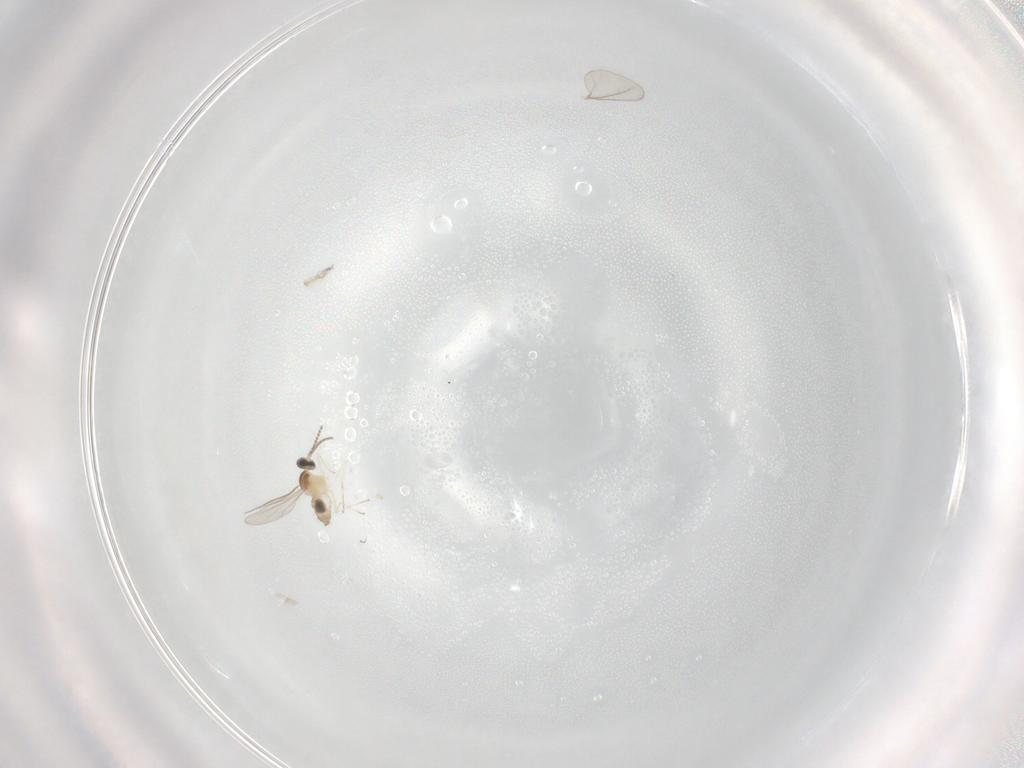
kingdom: Animalia
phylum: Arthropoda
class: Insecta
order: Diptera
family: Cecidomyiidae
